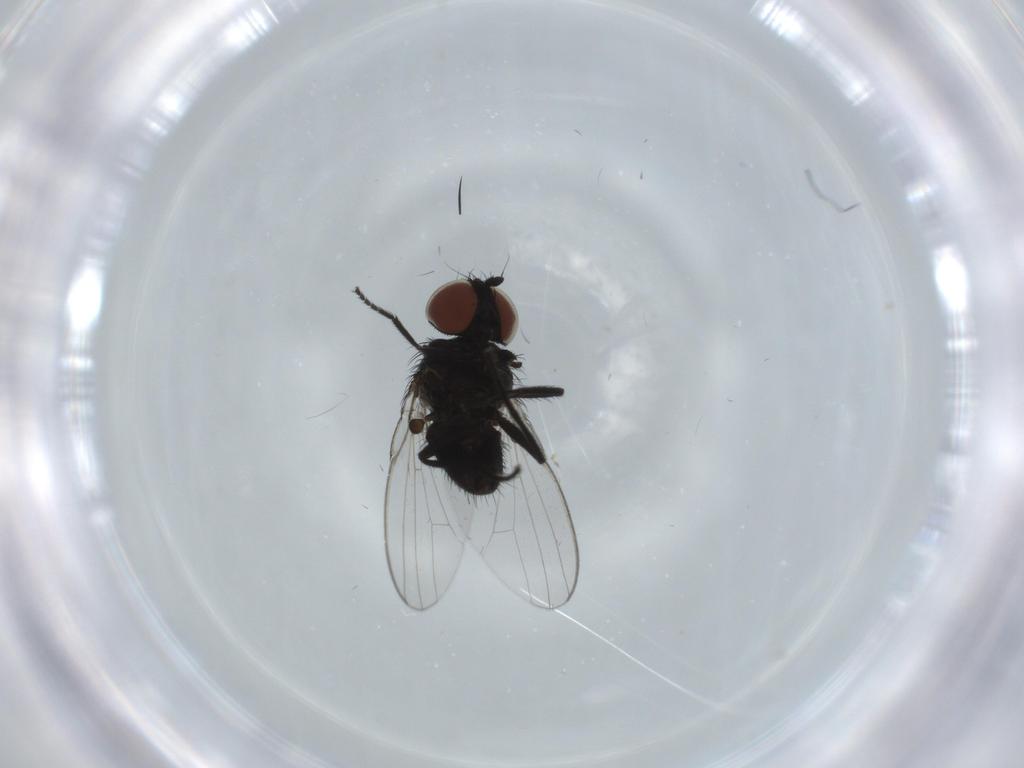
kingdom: Animalia
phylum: Arthropoda
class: Insecta
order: Diptera
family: Milichiidae
